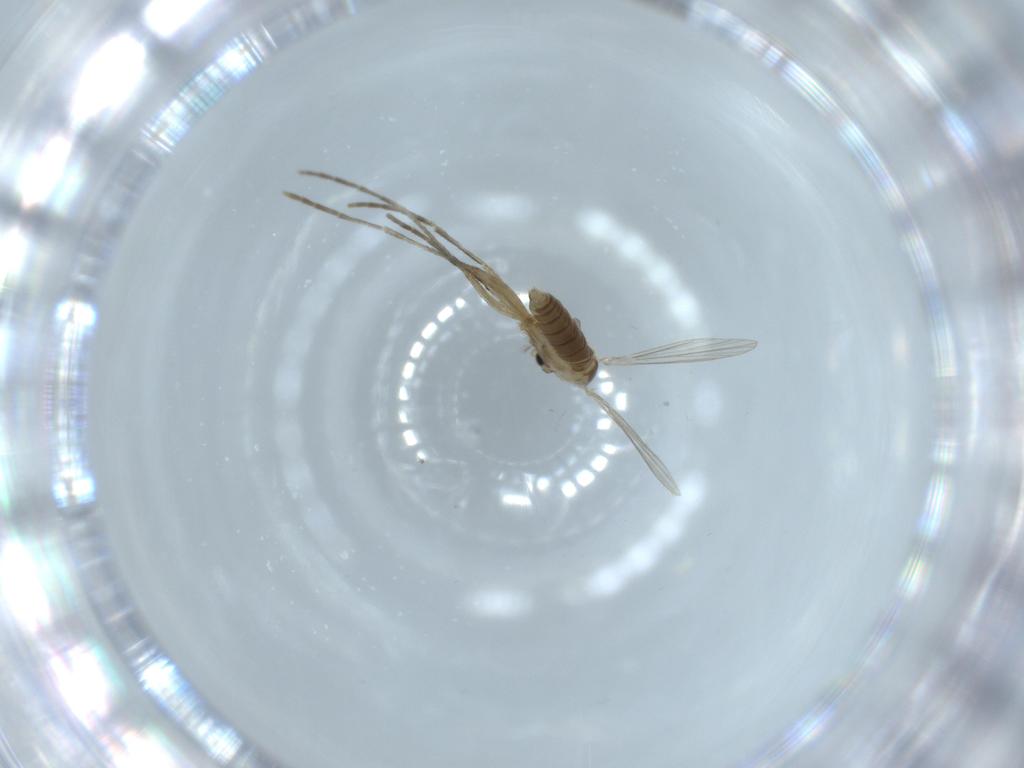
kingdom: Animalia
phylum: Arthropoda
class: Insecta
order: Diptera
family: Psychodidae
